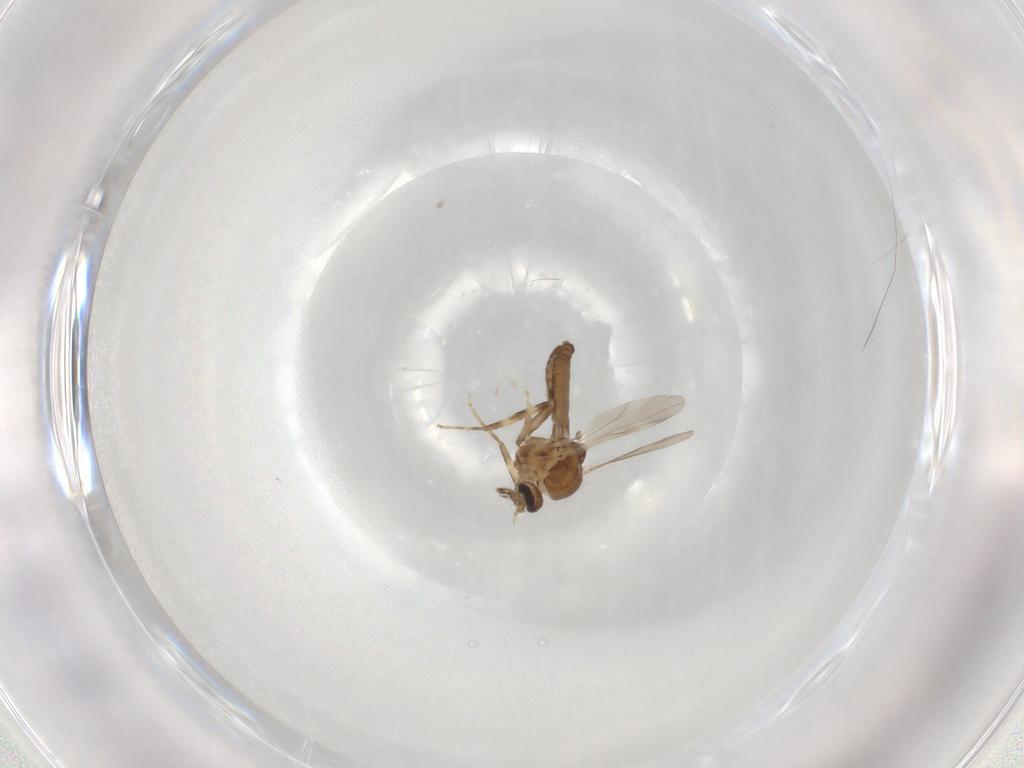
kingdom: Animalia
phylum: Arthropoda
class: Insecta
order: Diptera
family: Ceratopogonidae
